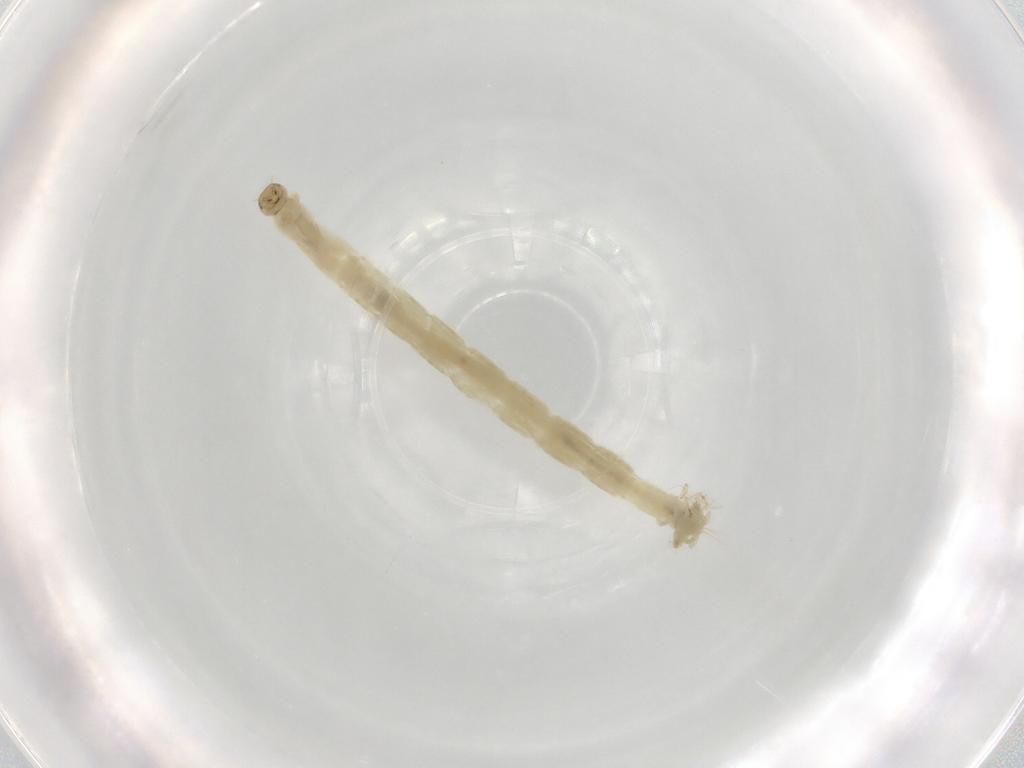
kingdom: Animalia
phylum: Arthropoda
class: Insecta
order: Diptera
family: Chironomidae
